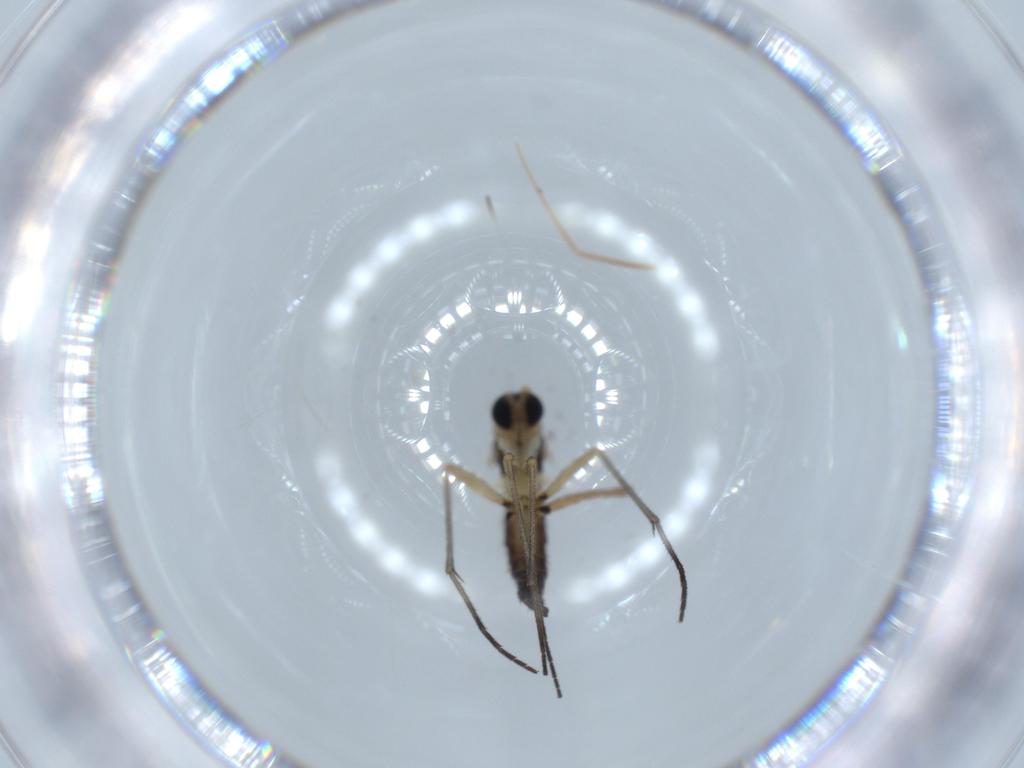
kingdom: Animalia
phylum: Arthropoda
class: Insecta
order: Diptera
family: Sciaridae
